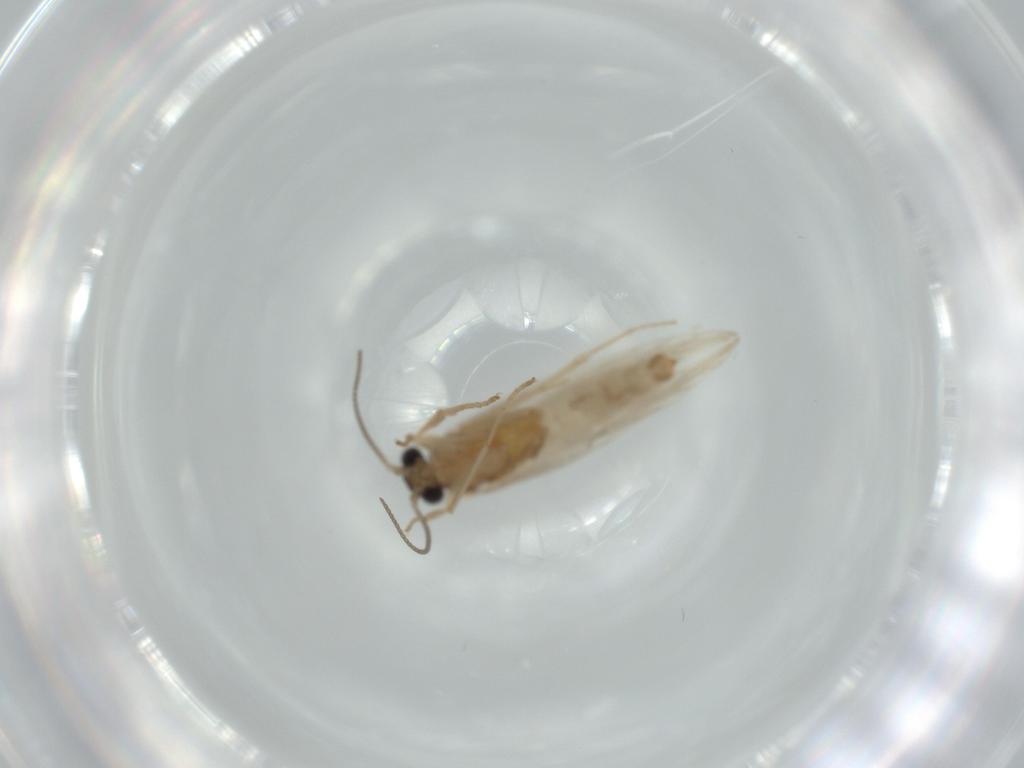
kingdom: Animalia
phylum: Arthropoda
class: Insecta
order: Trichoptera
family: Hydroptilidae
